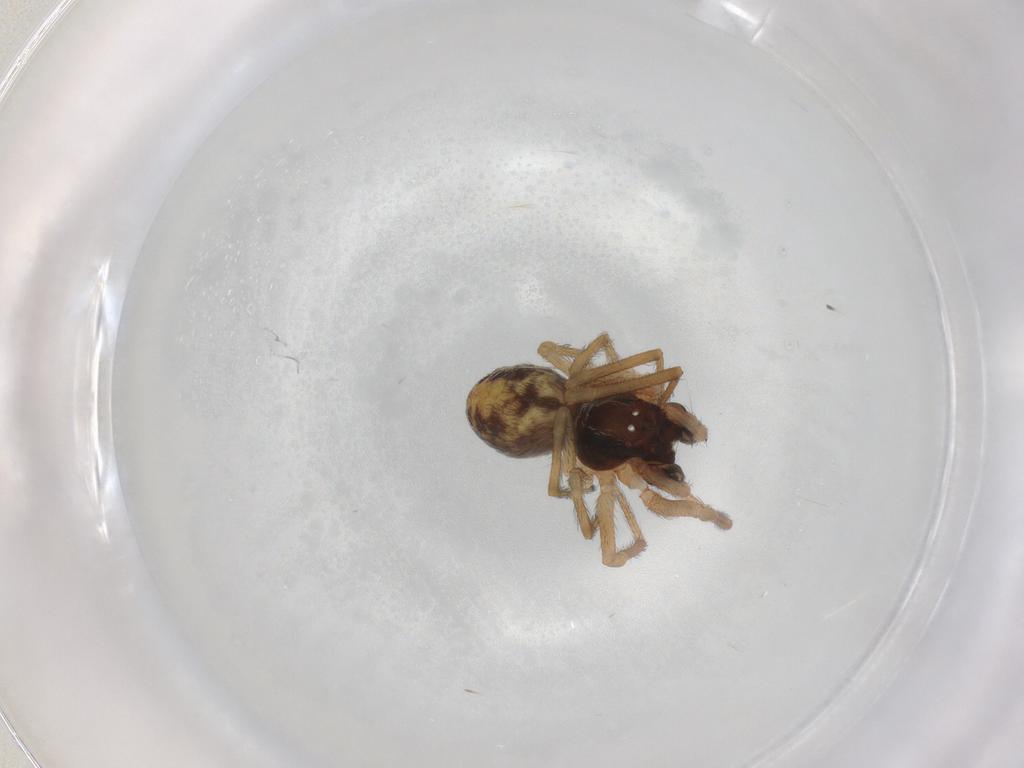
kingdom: Animalia
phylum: Arthropoda
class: Arachnida
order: Araneae
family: Dictynidae
